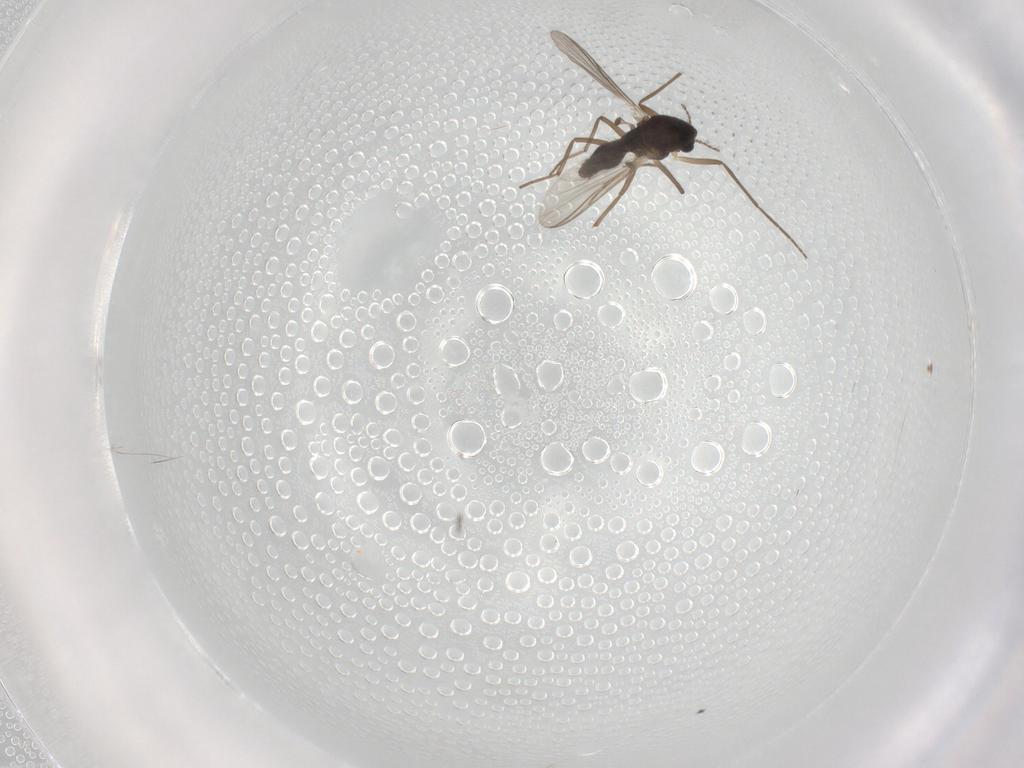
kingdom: Animalia
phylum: Arthropoda
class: Insecta
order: Diptera
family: Chironomidae
